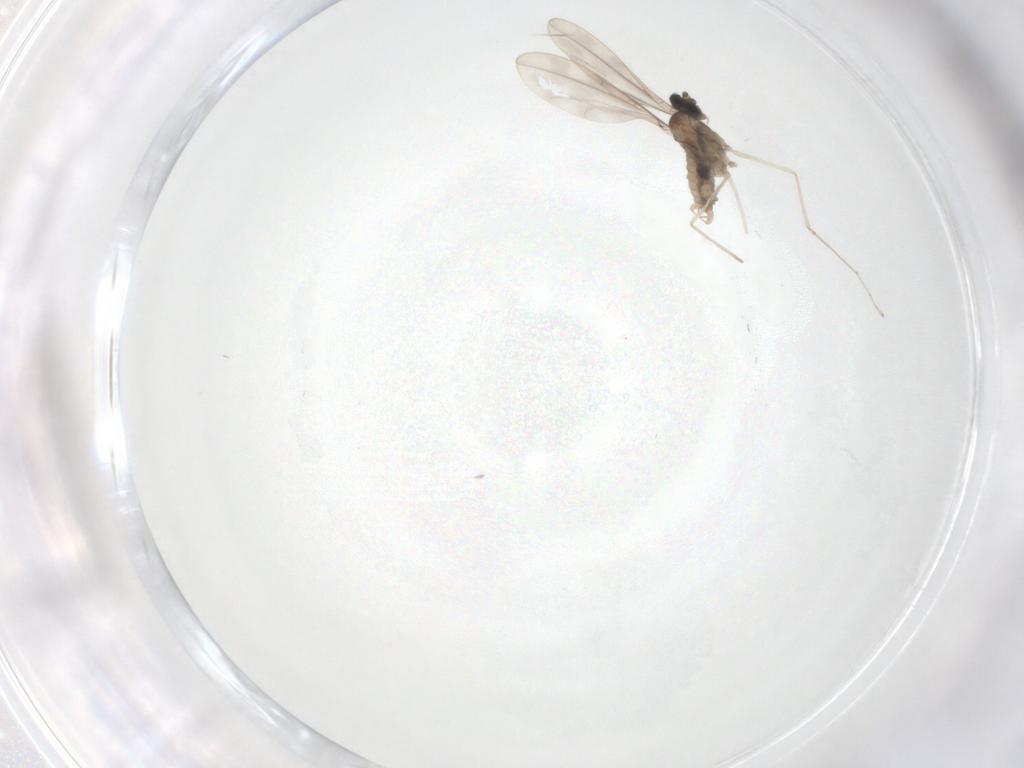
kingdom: Animalia
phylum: Arthropoda
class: Insecta
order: Diptera
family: Cecidomyiidae
